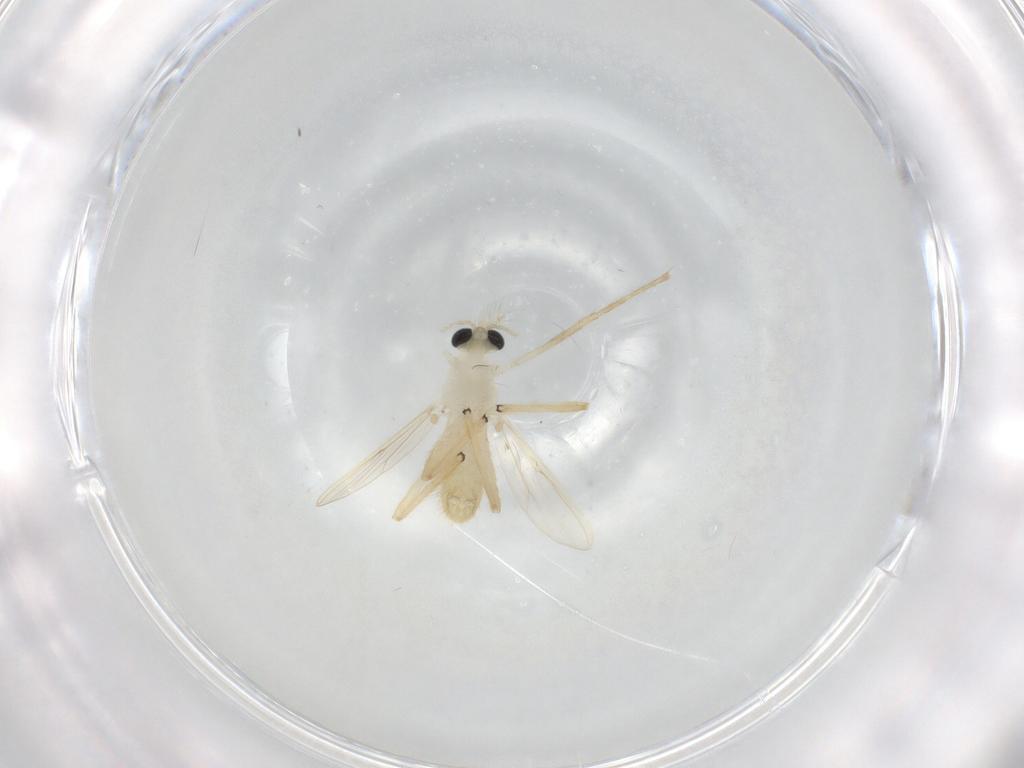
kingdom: Animalia
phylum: Arthropoda
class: Insecta
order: Diptera
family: Chironomidae
